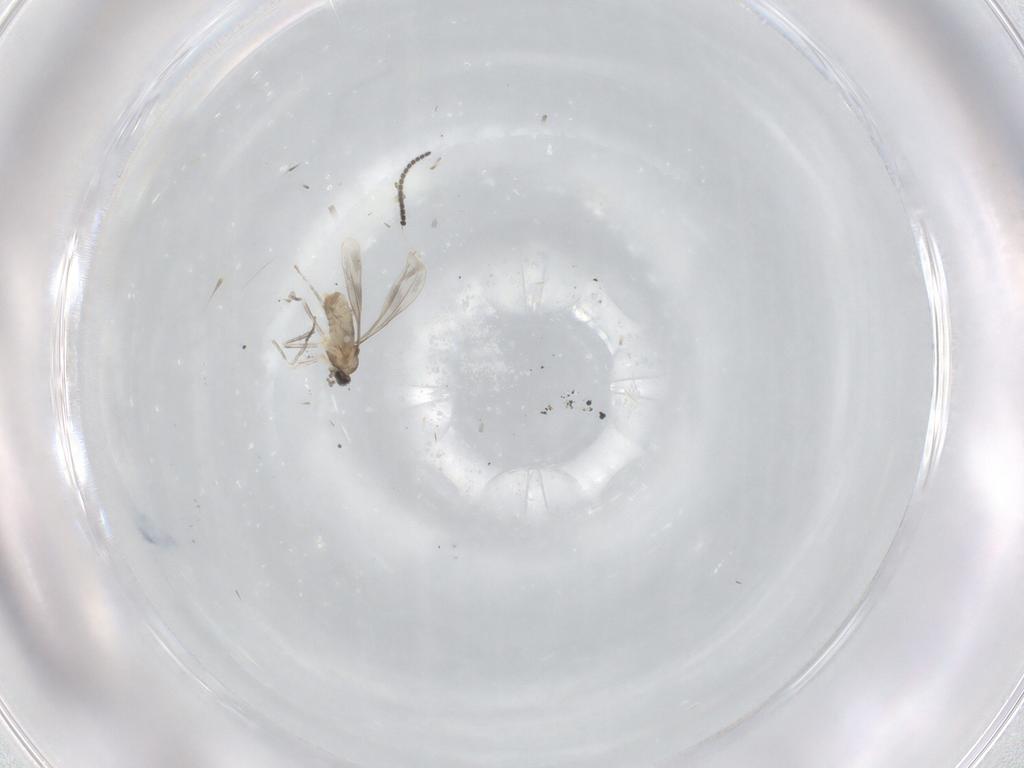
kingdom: Animalia
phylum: Arthropoda
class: Insecta
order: Diptera
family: Cecidomyiidae
